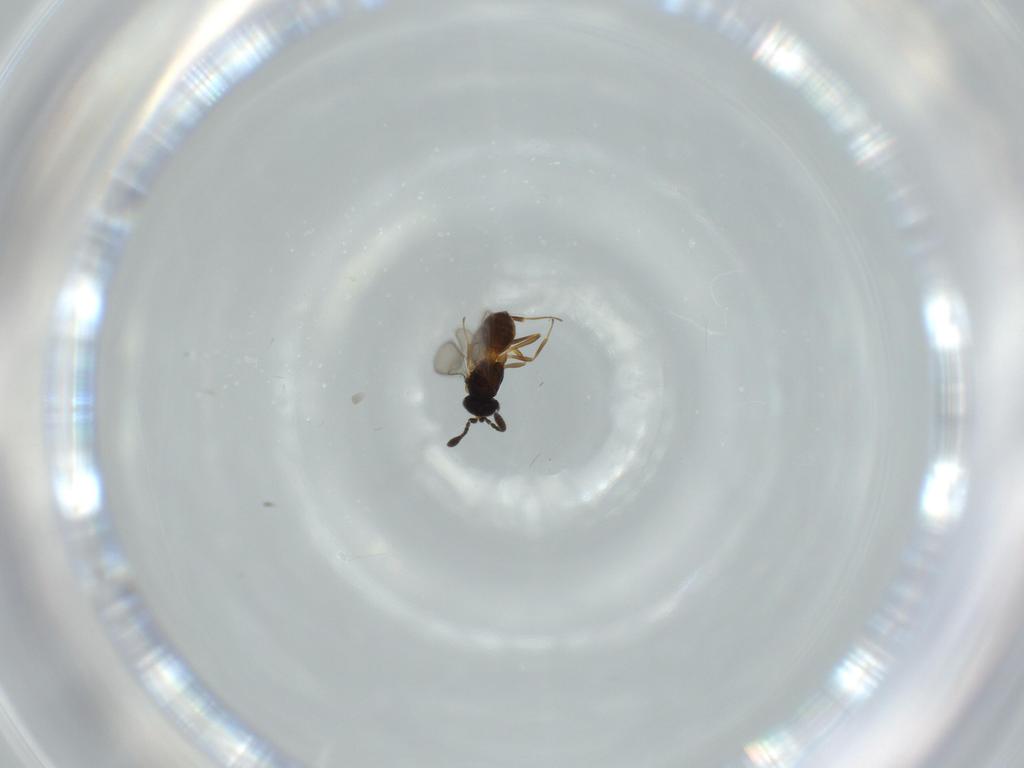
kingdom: Animalia
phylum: Arthropoda
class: Insecta
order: Hymenoptera
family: Scelionidae
